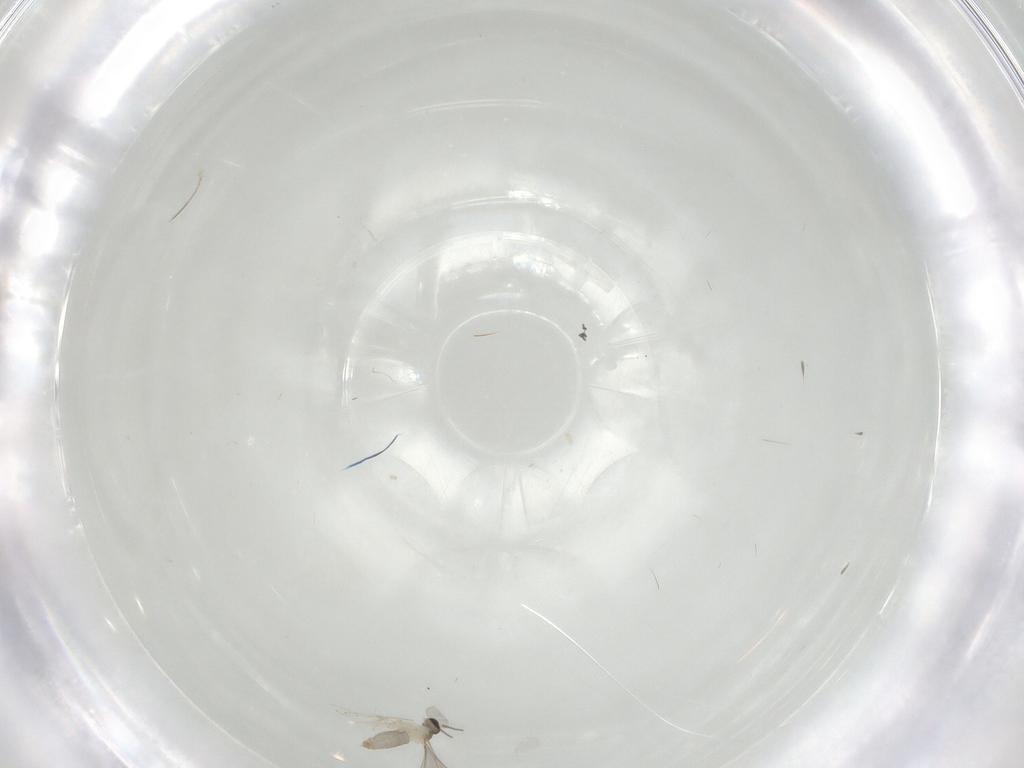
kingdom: Animalia
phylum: Arthropoda
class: Insecta
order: Diptera
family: Chironomidae
